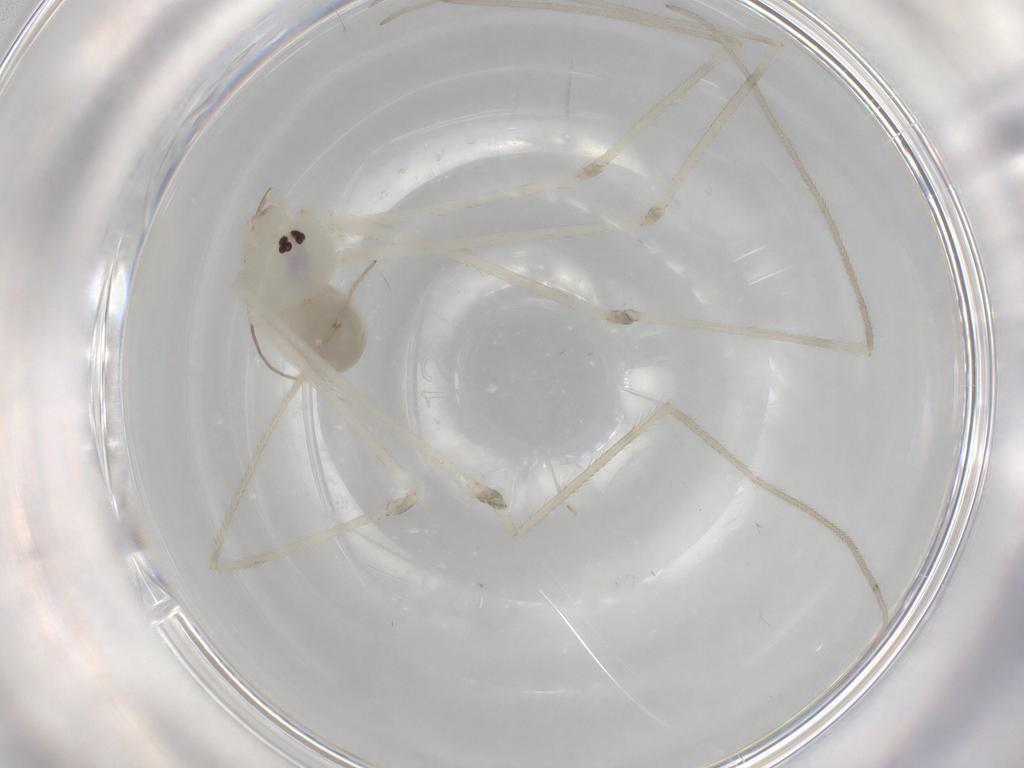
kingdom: Animalia
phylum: Arthropoda
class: Arachnida
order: Araneae
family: Pholcidae
